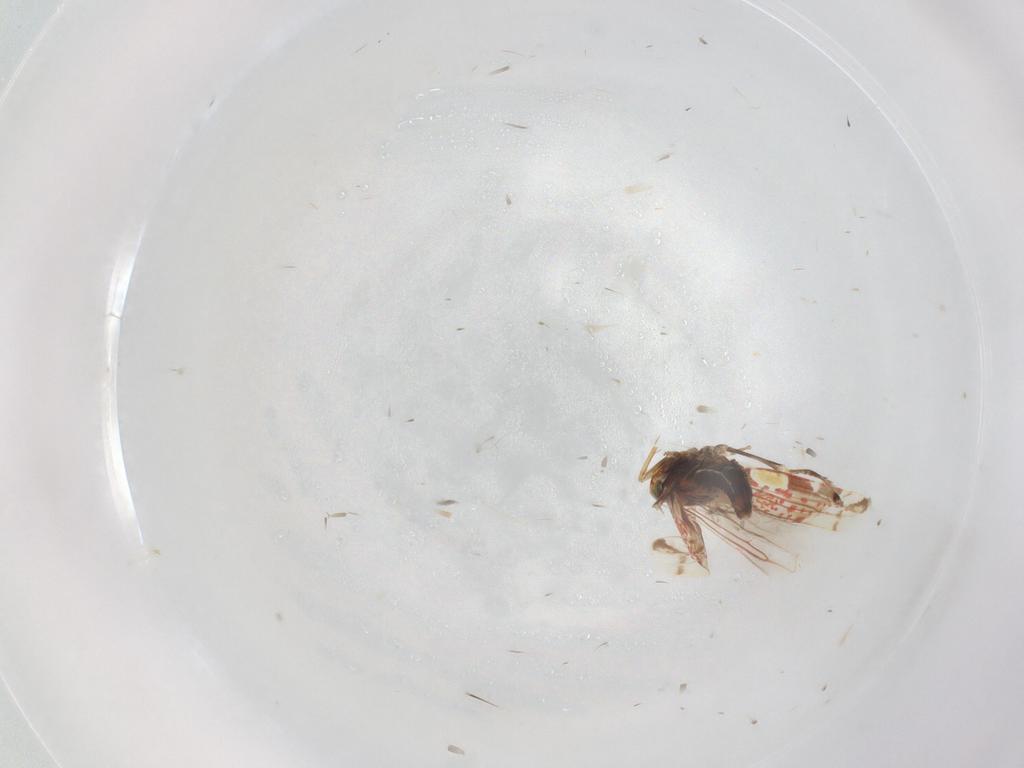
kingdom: Animalia
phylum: Arthropoda
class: Insecta
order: Hemiptera
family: Cicadellidae
